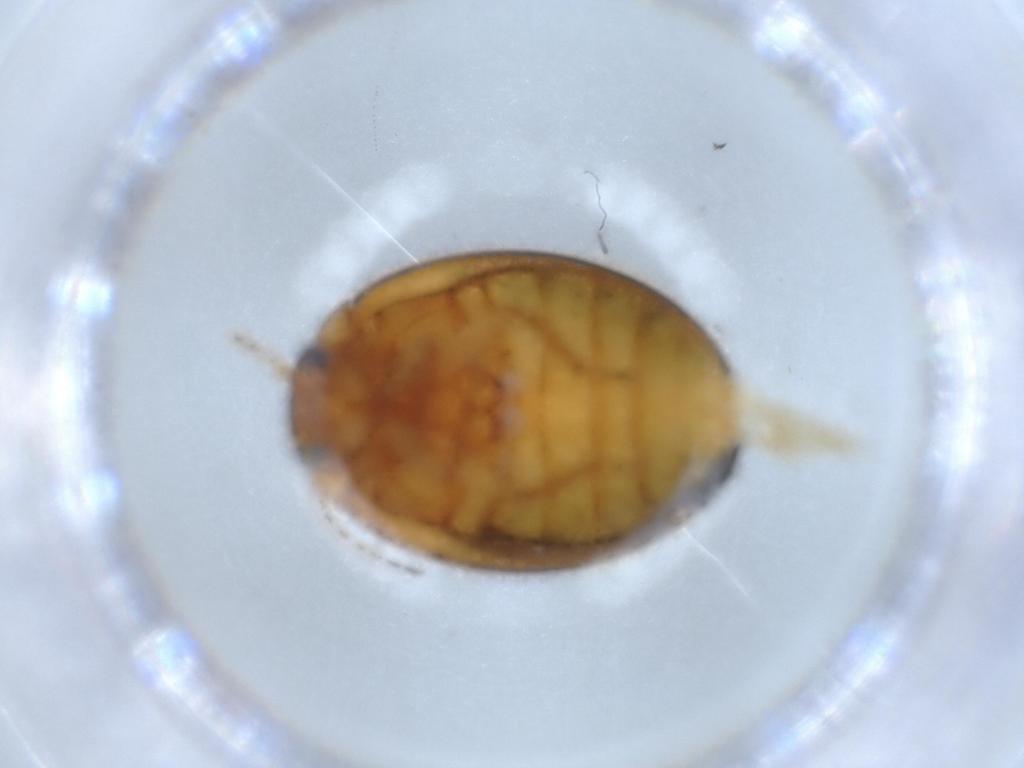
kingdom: Animalia
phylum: Arthropoda
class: Insecta
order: Coleoptera
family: Scirtidae
